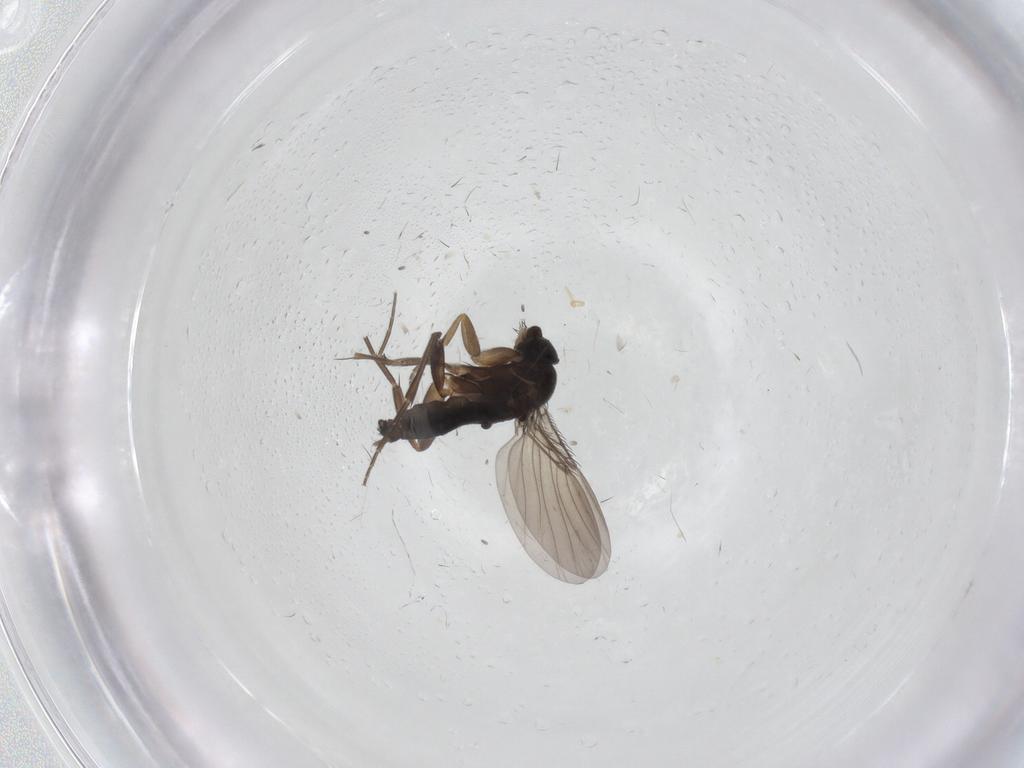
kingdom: Animalia
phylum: Arthropoda
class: Insecta
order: Diptera
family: Phoridae
